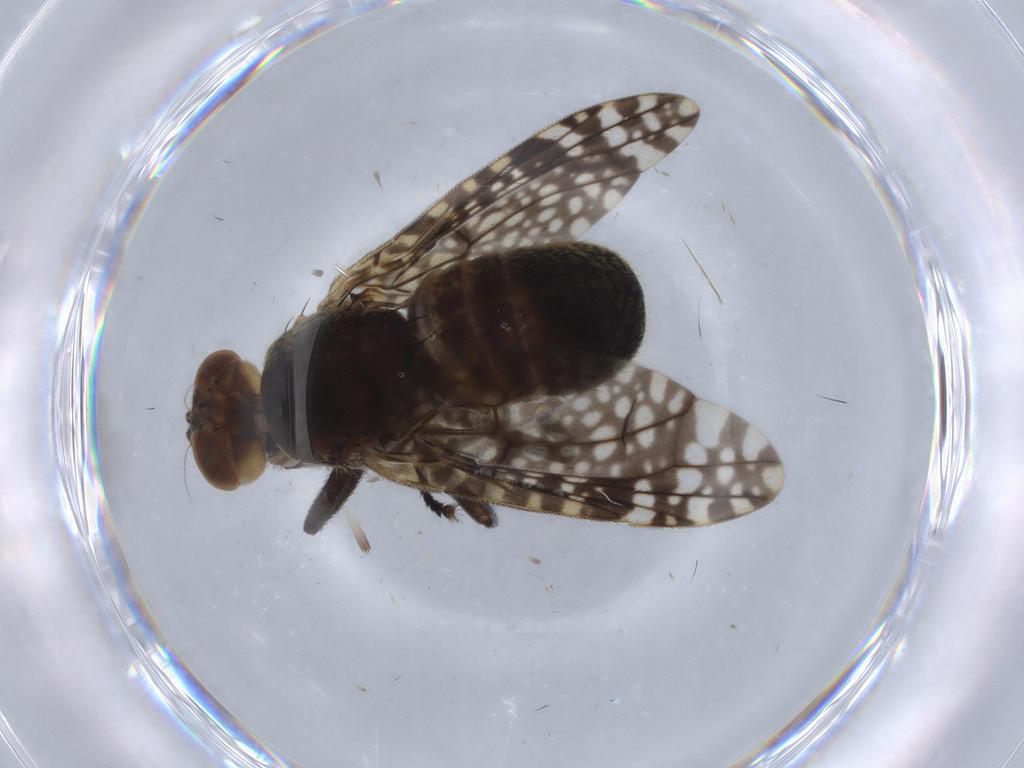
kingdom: Animalia
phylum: Arthropoda
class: Insecta
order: Diptera
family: Platystomatidae
